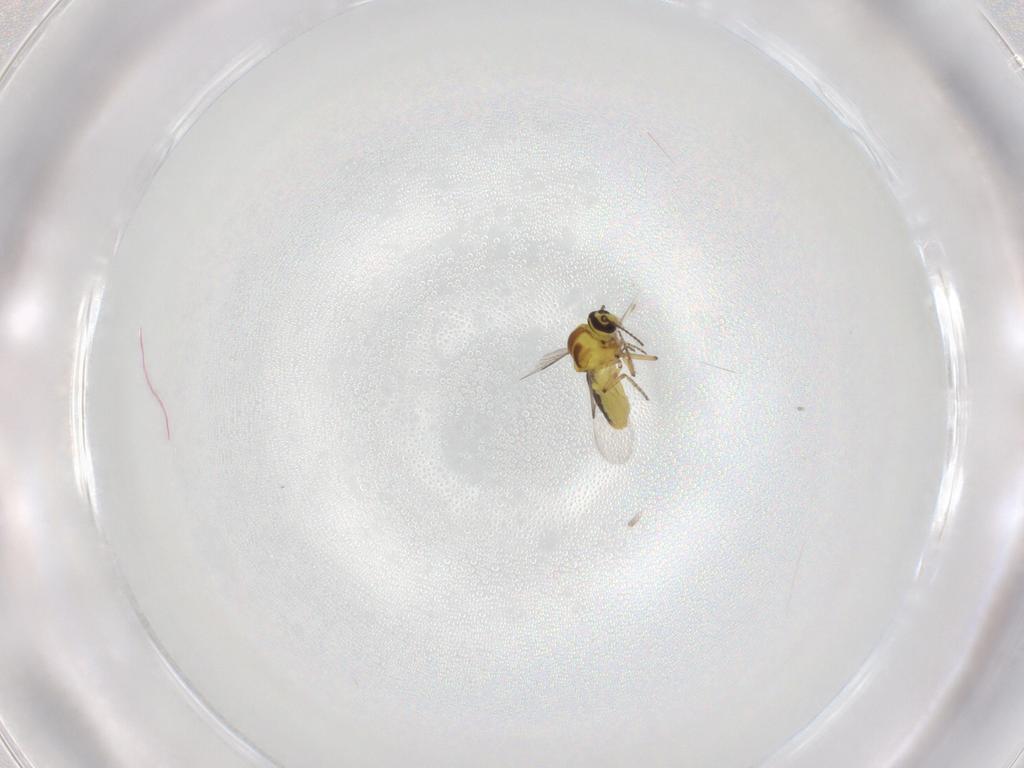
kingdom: Animalia
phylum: Arthropoda
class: Insecta
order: Diptera
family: Ceratopogonidae
